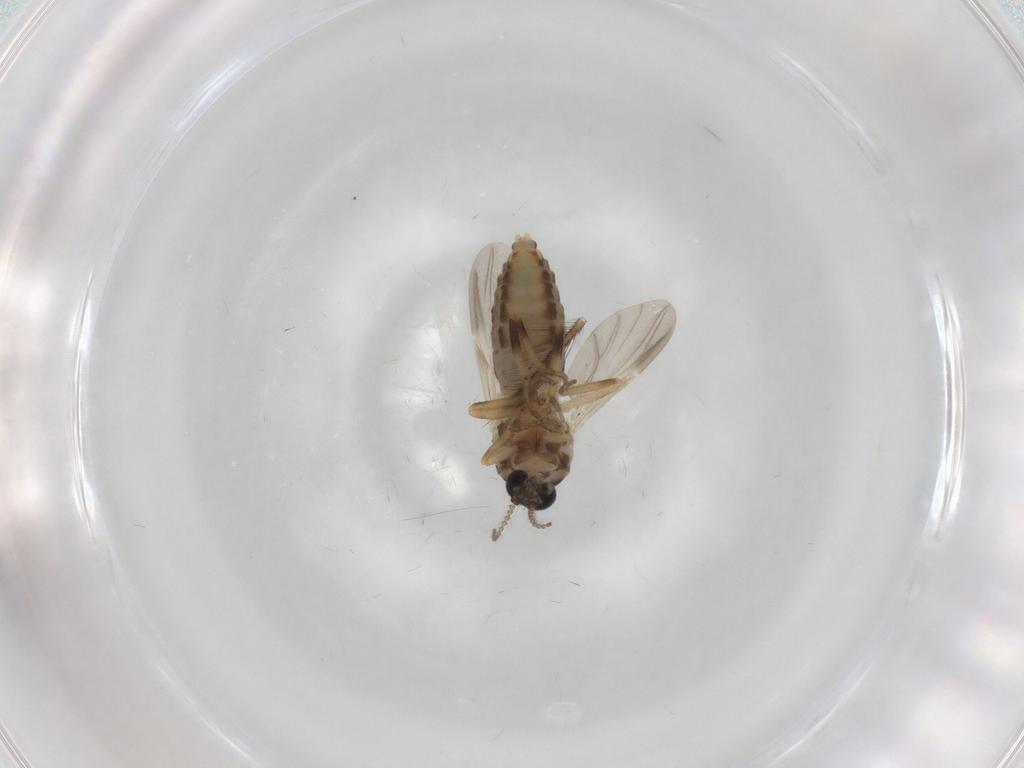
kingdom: Animalia
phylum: Arthropoda
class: Insecta
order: Diptera
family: Ceratopogonidae
